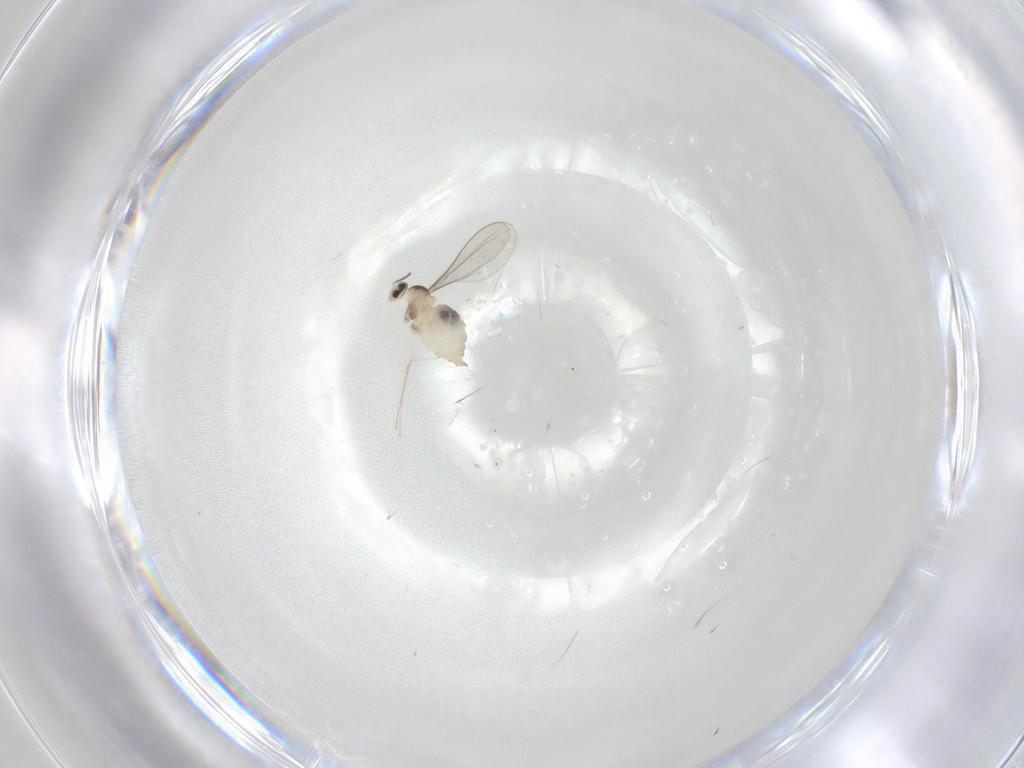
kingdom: Animalia
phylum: Arthropoda
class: Insecta
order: Diptera
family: Cecidomyiidae
